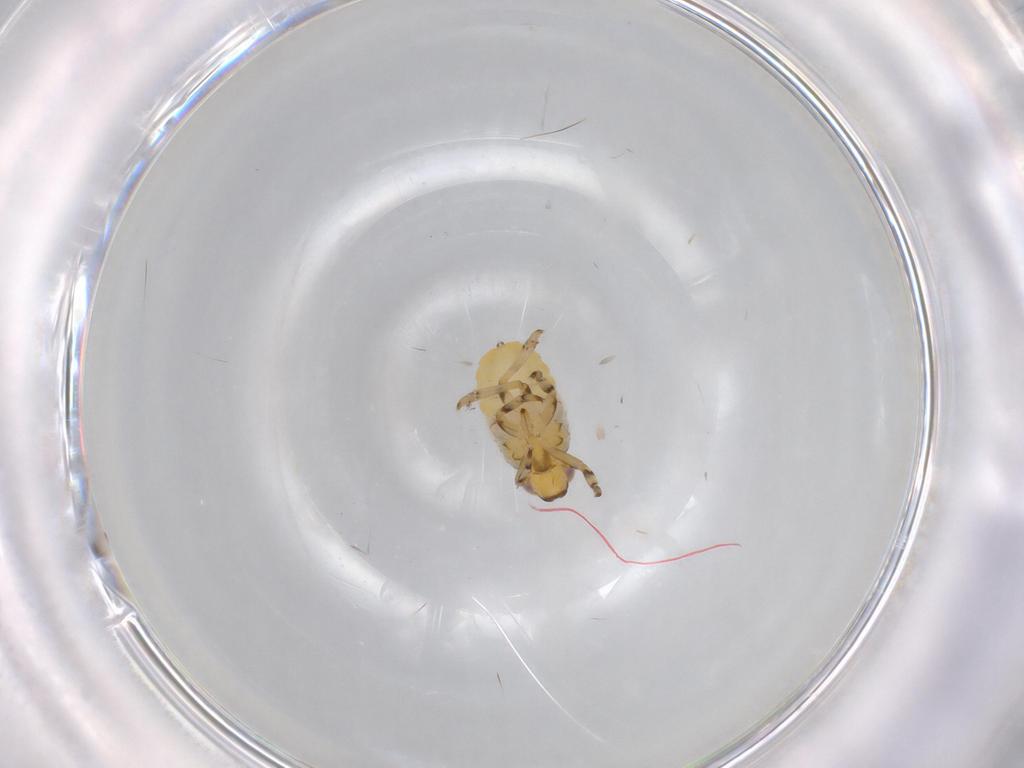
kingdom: Animalia
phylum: Arthropoda
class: Insecta
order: Hemiptera
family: Issidae
